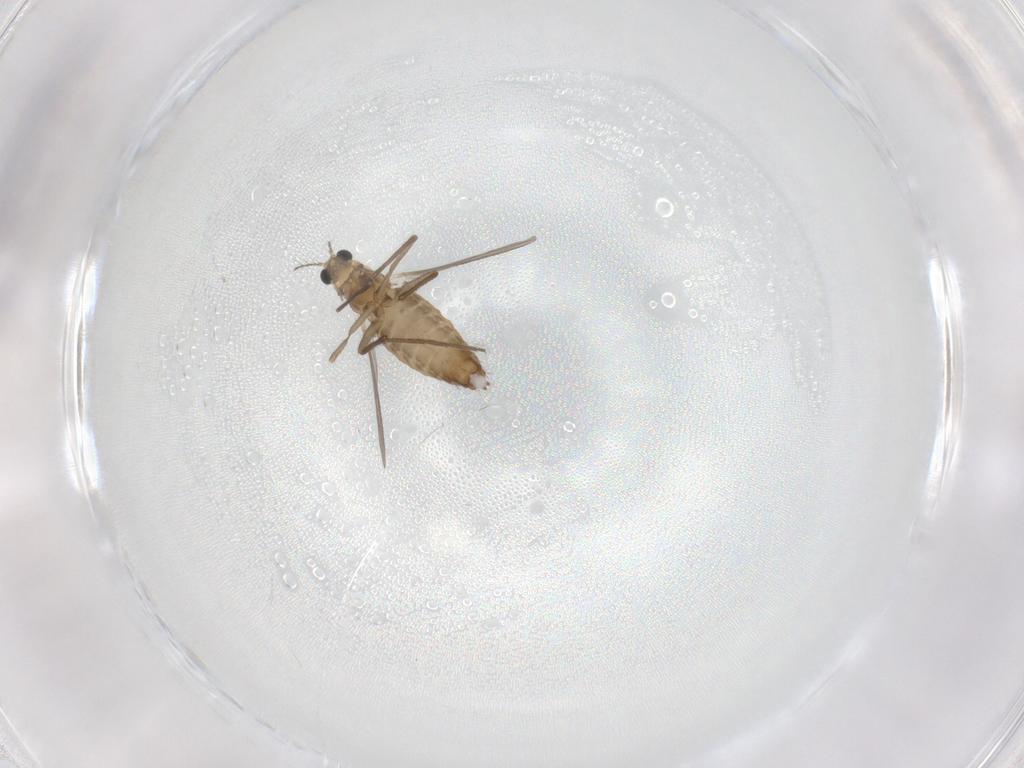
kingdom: Animalia
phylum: Arthropoda
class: Insecta
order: Diptera
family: Chironomidae
